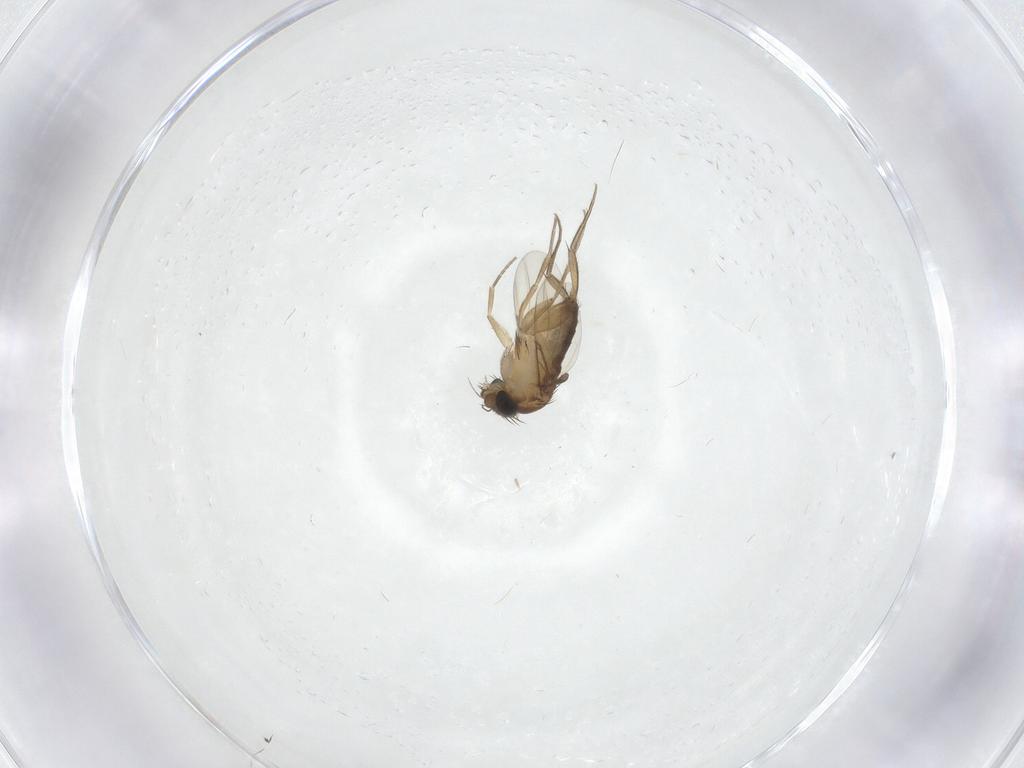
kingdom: Animalia
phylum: Arthropoda
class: Insecta
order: Diptera
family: Phoridae
